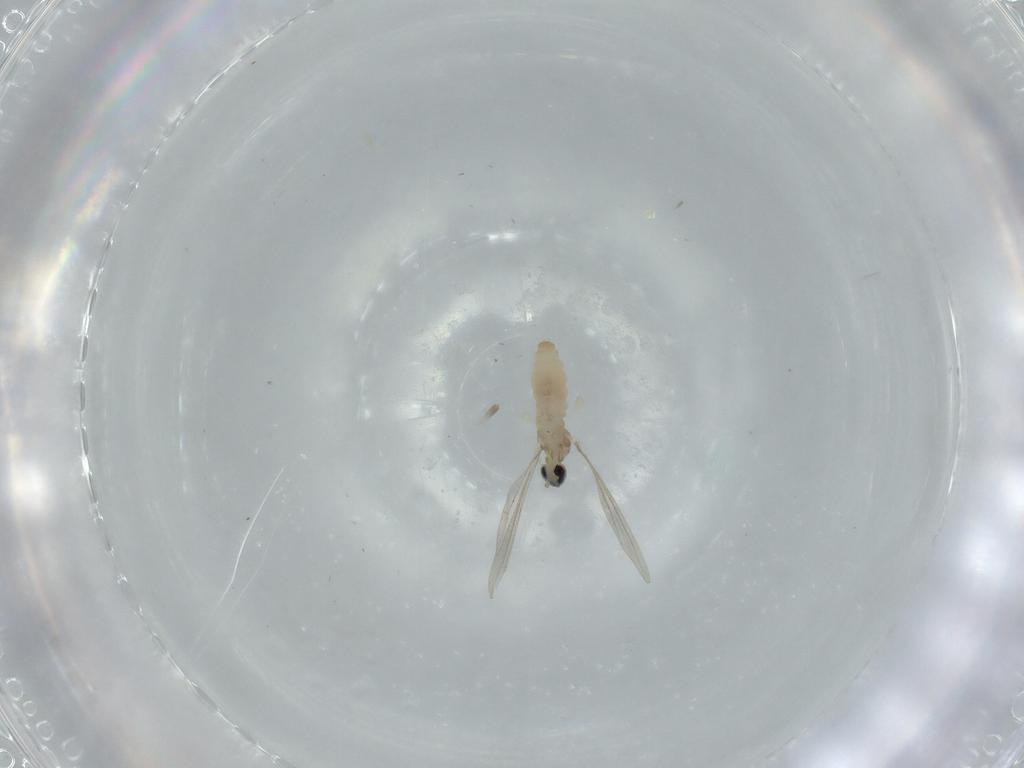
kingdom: Animalia
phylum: Arthropoda
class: Insecta
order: Diptera
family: Cecidomyiidae
